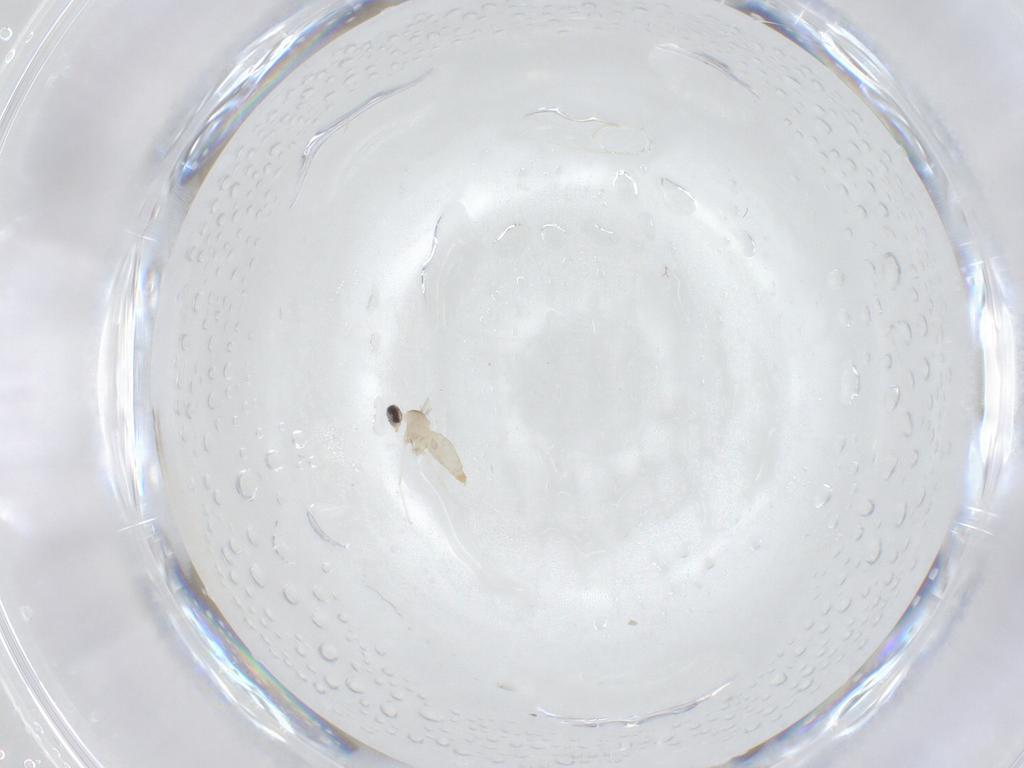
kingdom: Animalia
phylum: Arthropoda
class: Insecta
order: Diptera
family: Cecidomyiidae
